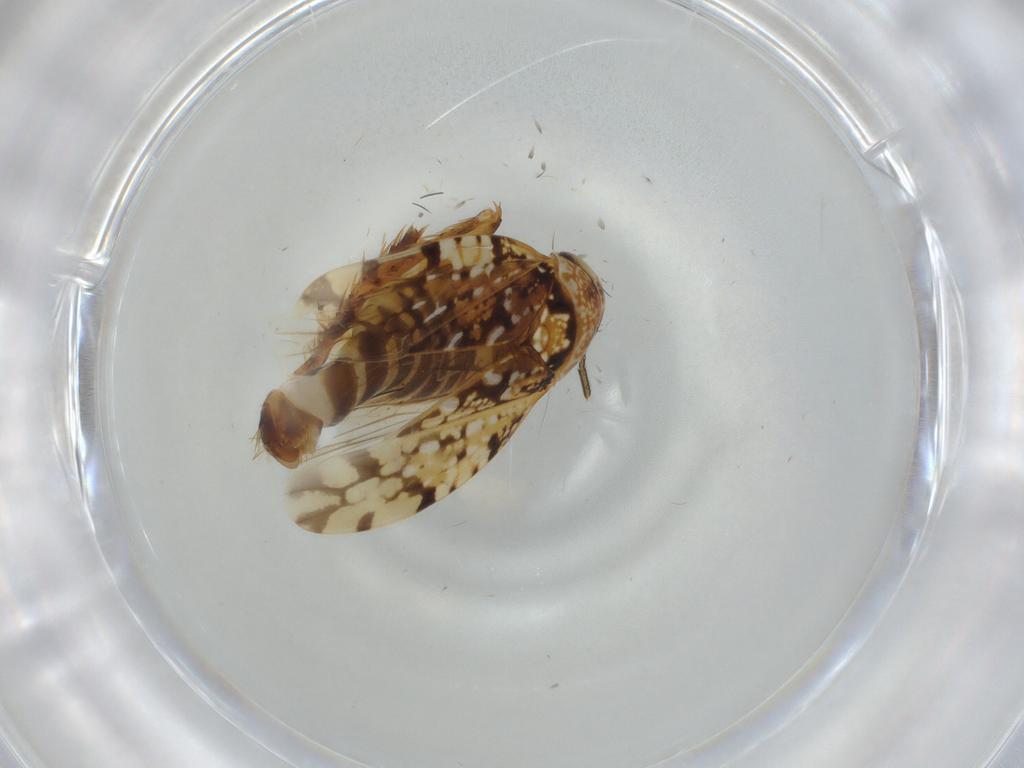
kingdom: Animalia
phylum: Arthropoda
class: Insecta
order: Hemiptera
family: Cicadellidae
